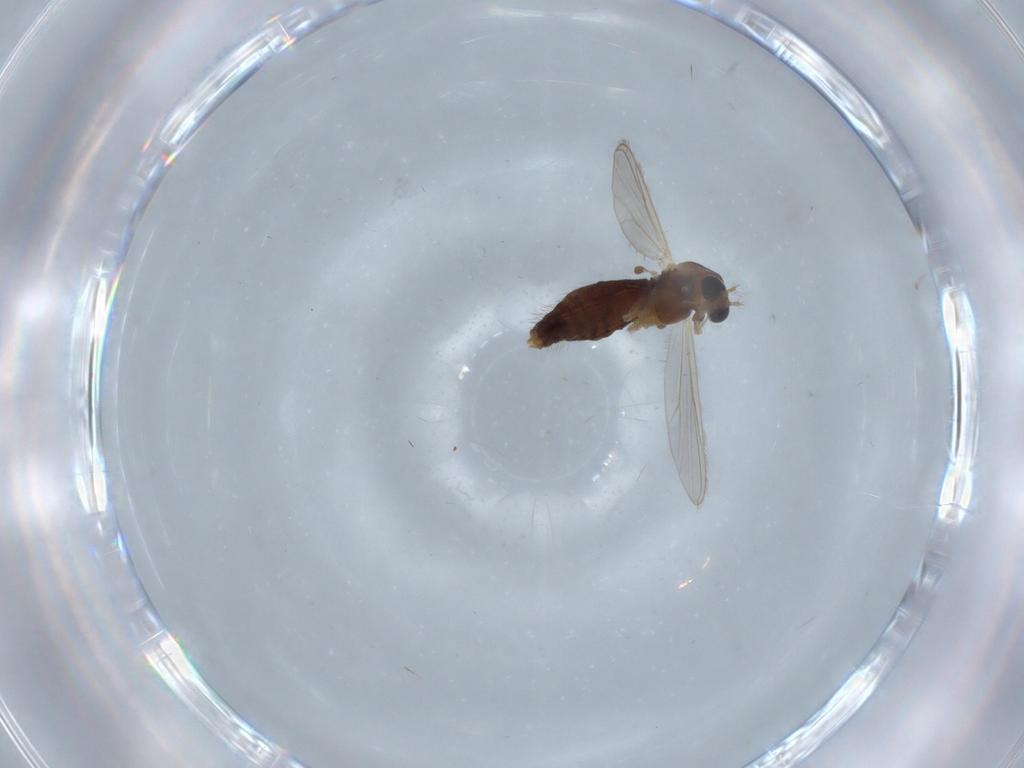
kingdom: Animalia
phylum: Arthropoda
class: Insecta
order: Diptera
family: Chironomidae
